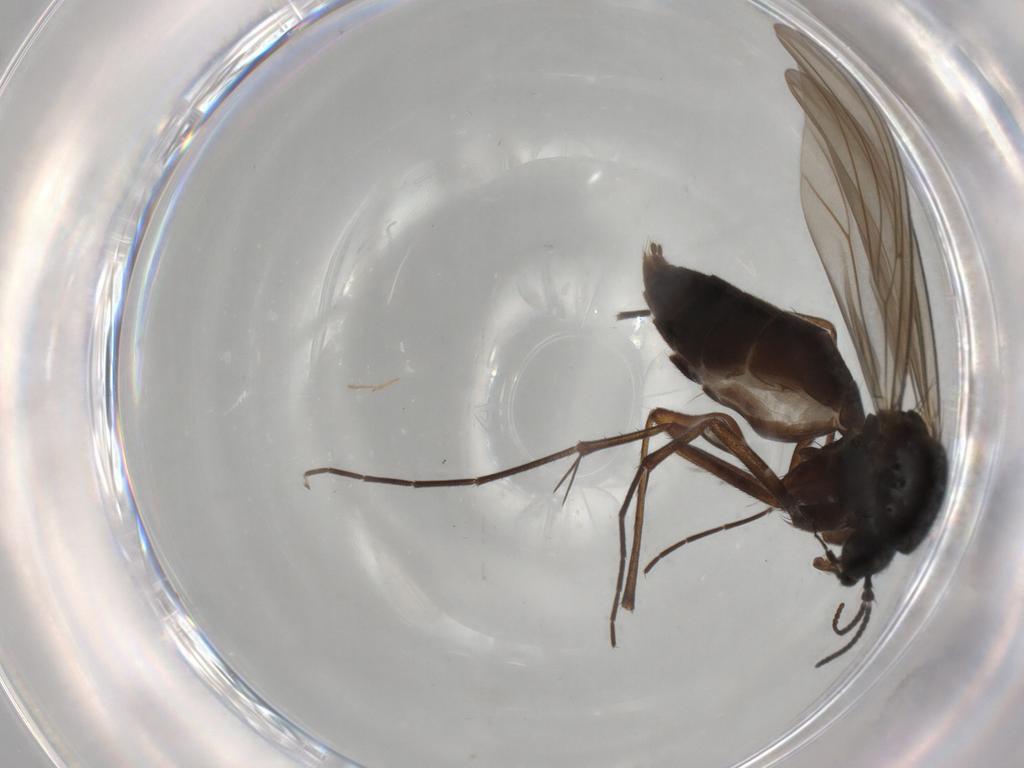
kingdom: Animalia
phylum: Arthropoda
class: Insecta
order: Diptera
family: Mycetophilidae
